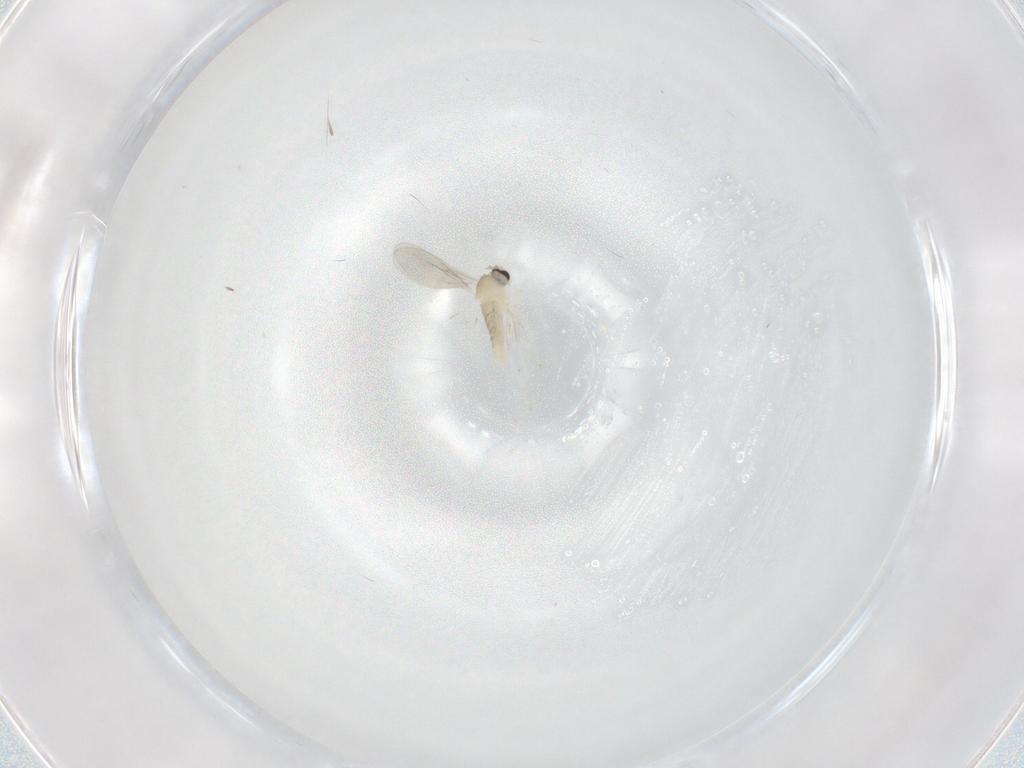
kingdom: Animalia
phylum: Arthropoda
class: Insecta
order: Diptera
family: Cecidomyiidae
